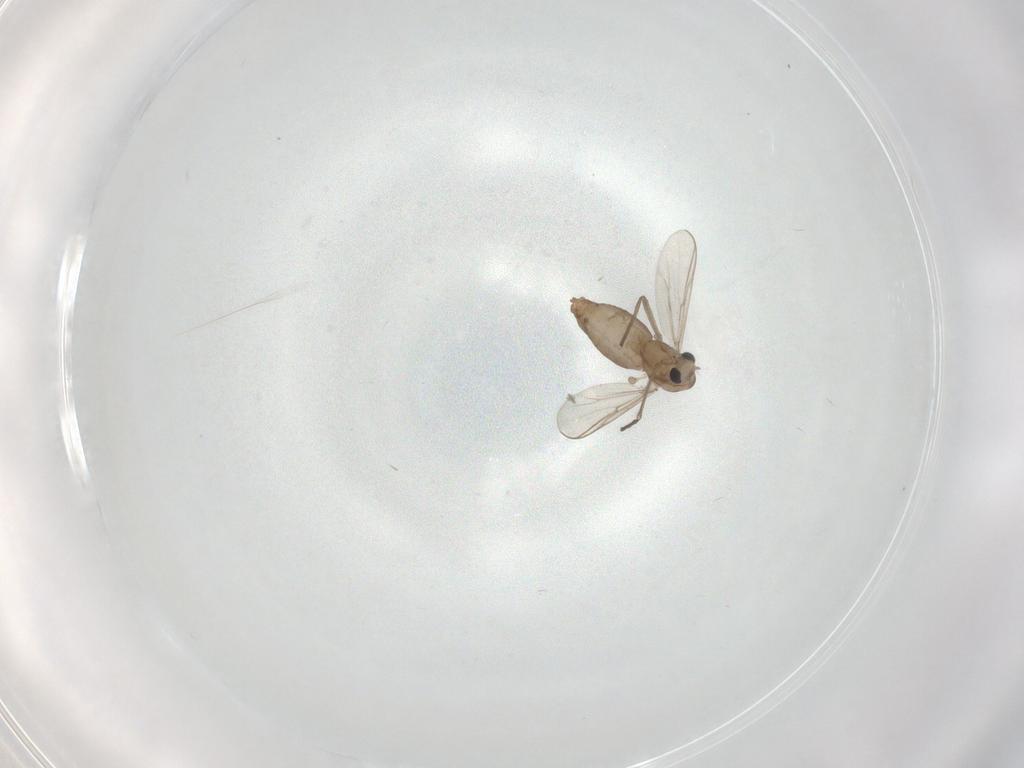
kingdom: Animalia
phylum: Arthropoda
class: Insecta
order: Diptera
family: Chironomidae
